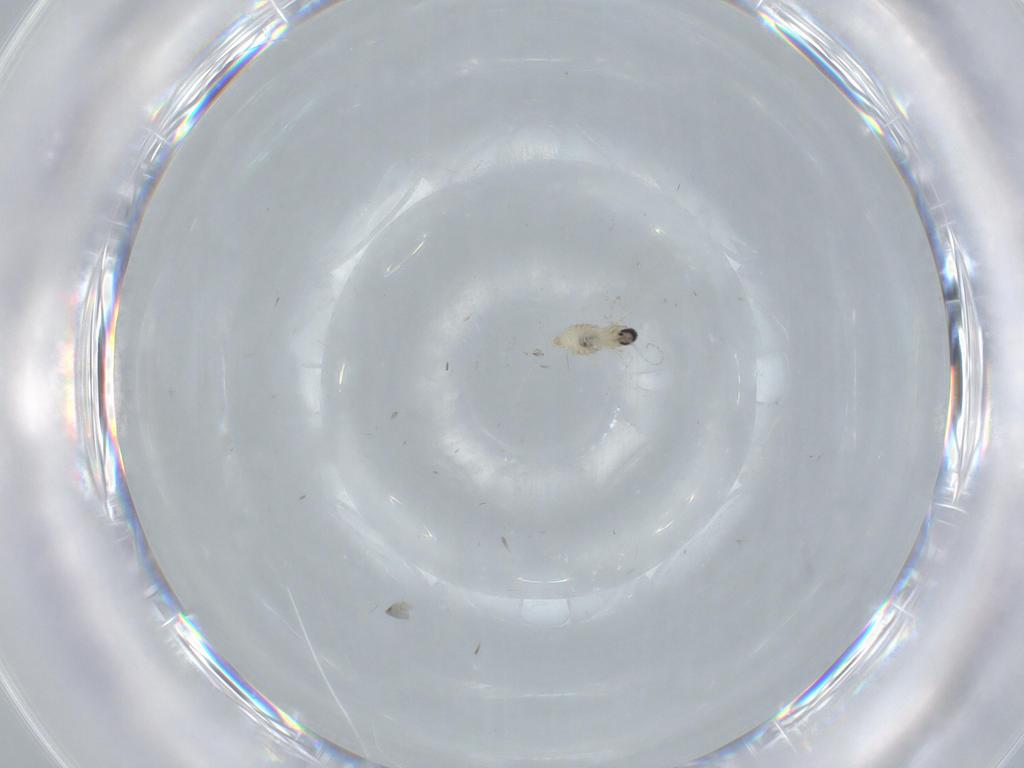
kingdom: Animalia
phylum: Arthropoda
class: Insecta
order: Diptera
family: Cecidomyiidae
